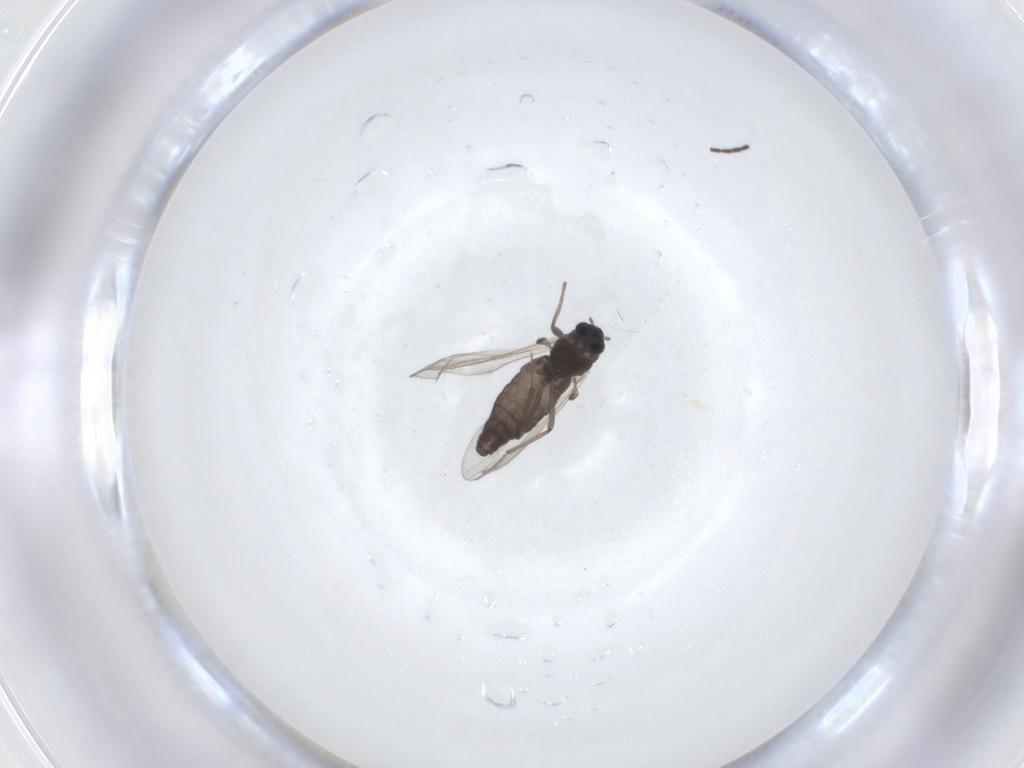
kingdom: Animalia
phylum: Arthropoda
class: Insecta
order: Diptera
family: Chironomidae
